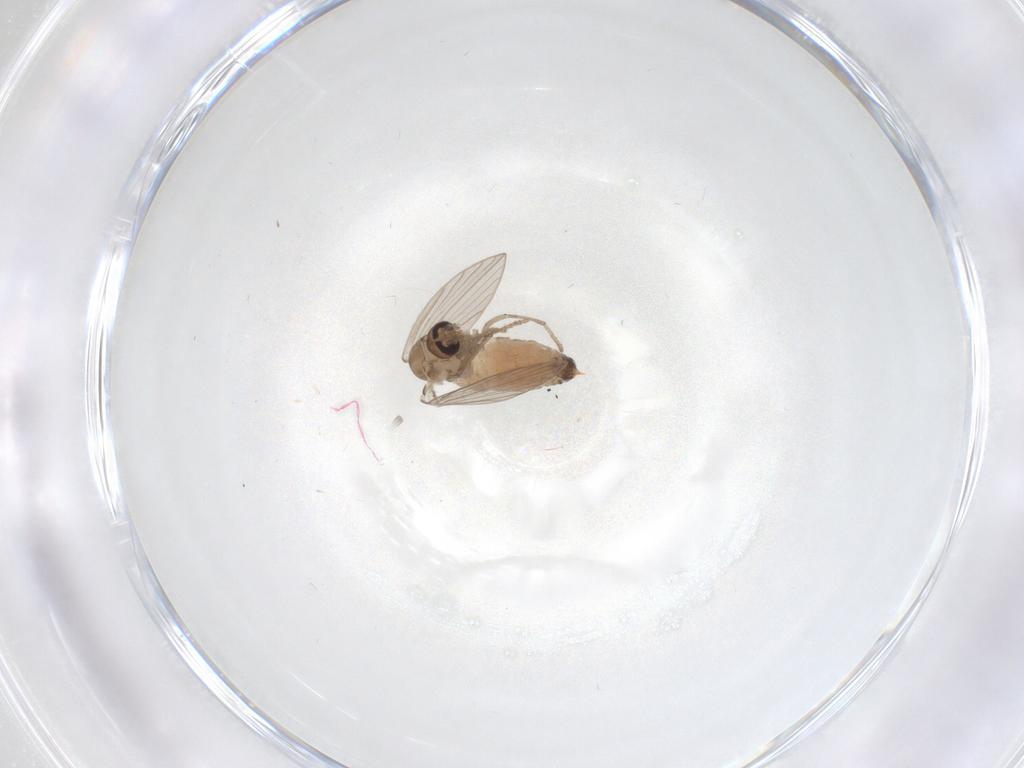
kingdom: Animalia
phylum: Arthropoda
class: Insecta
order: Diptera
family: Psychodidae
